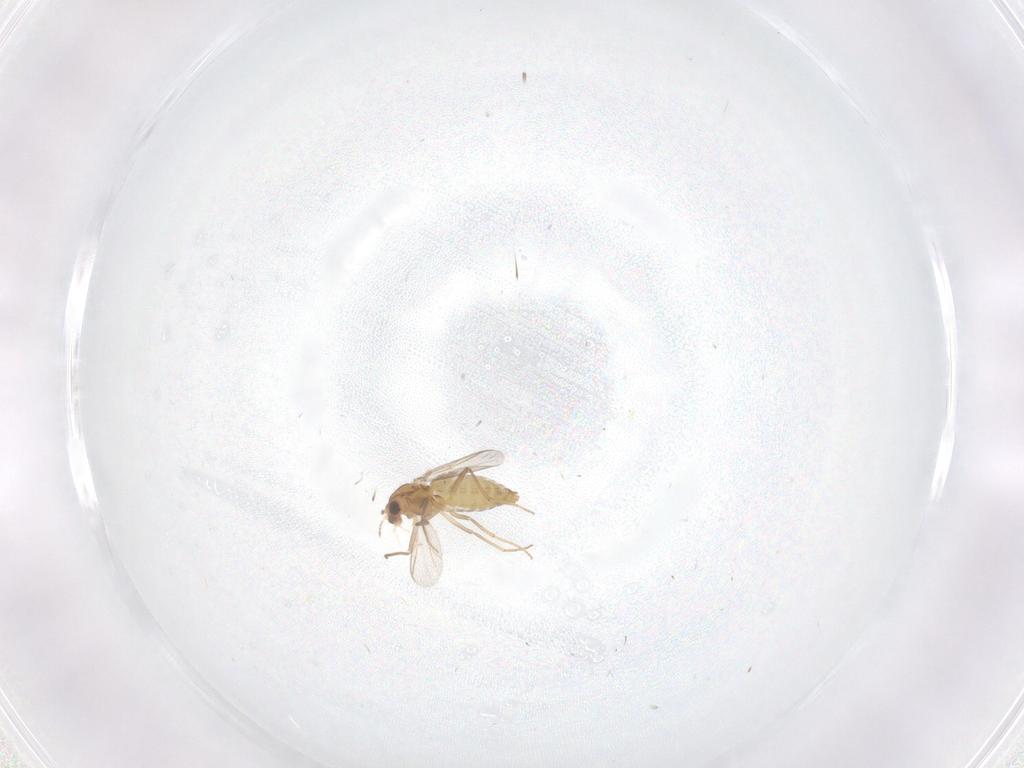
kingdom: Animalia
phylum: Arthropoda
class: Insecta
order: Diptera
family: Chironomidae
